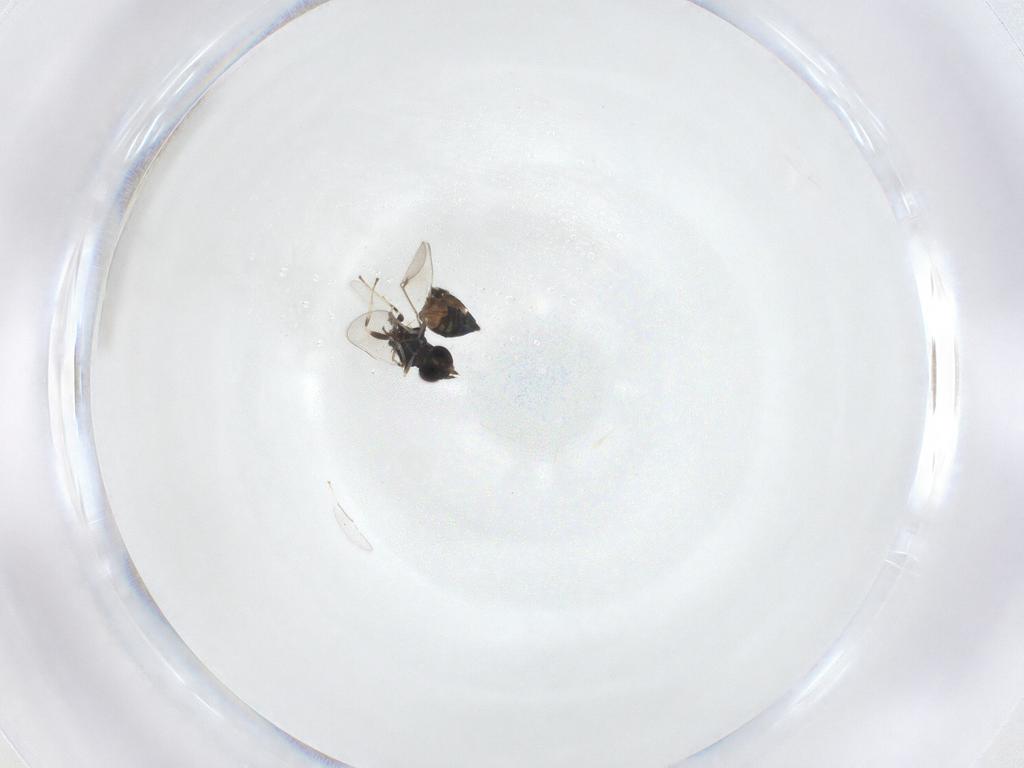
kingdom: Animalia
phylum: Arthropoda
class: Insecta
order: Hymenoptera
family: Eulophidae
